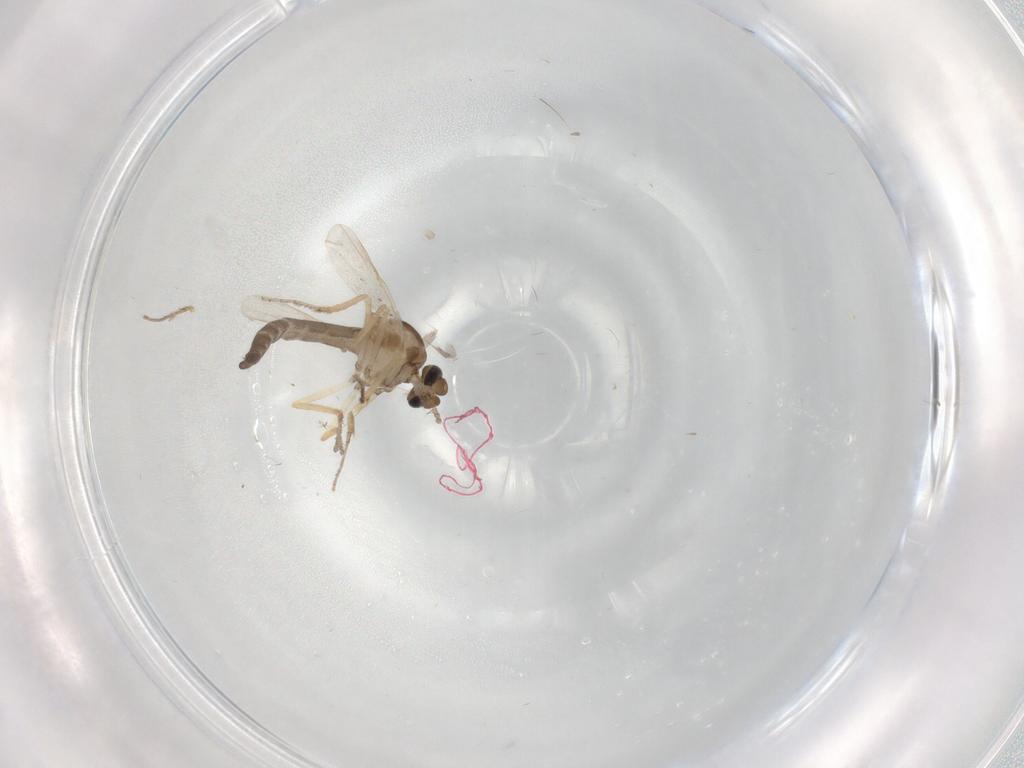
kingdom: Animalia
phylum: Arthropoda
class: Insecta
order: Diptera
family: Ceratopogonidae
